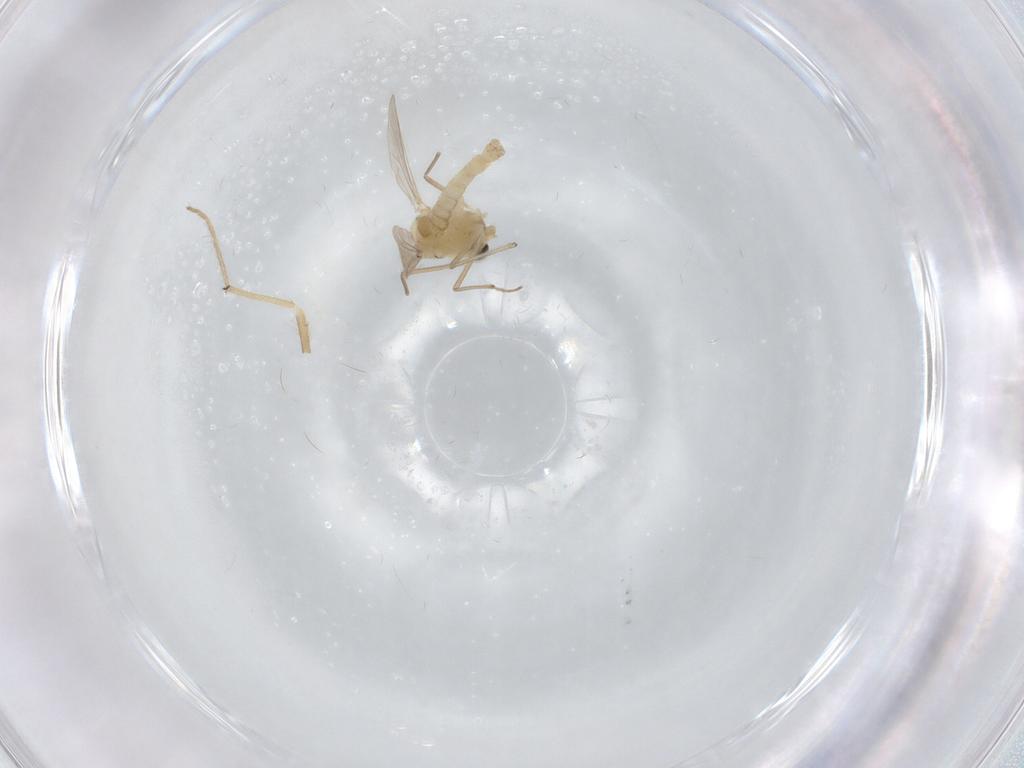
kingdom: Animalia
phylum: Arthropoda
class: Insecta
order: Diptera
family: Chironomidae
